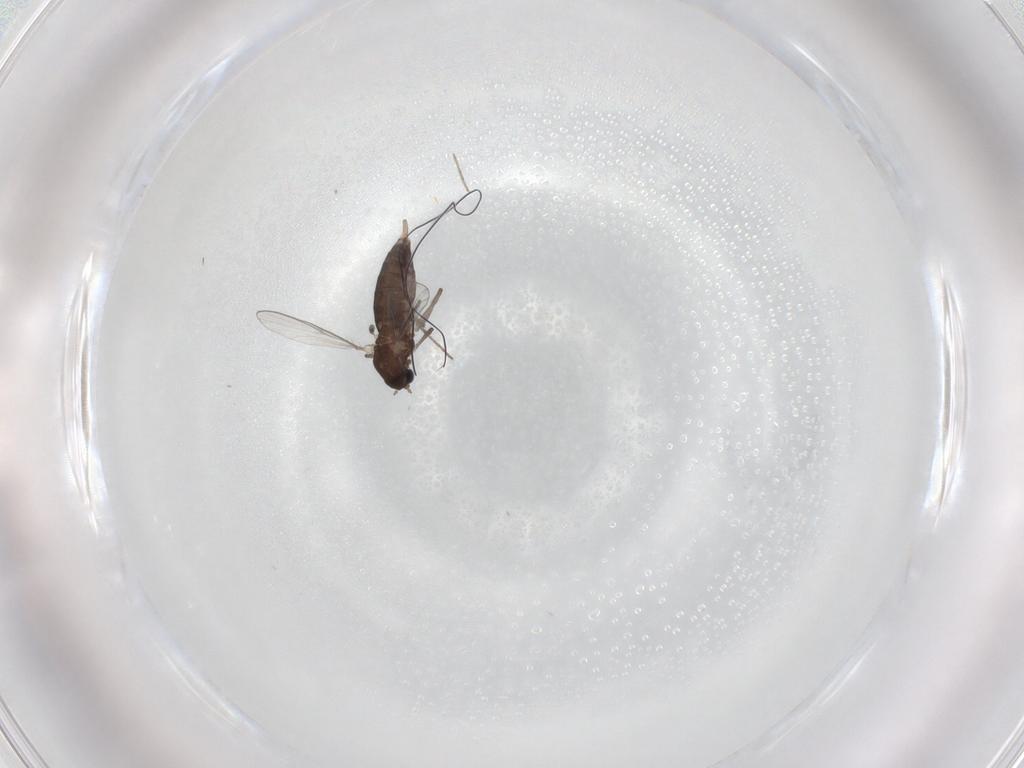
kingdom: Animalia
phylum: Arthropoda
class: Insecta
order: Diptera
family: Chironomidae
